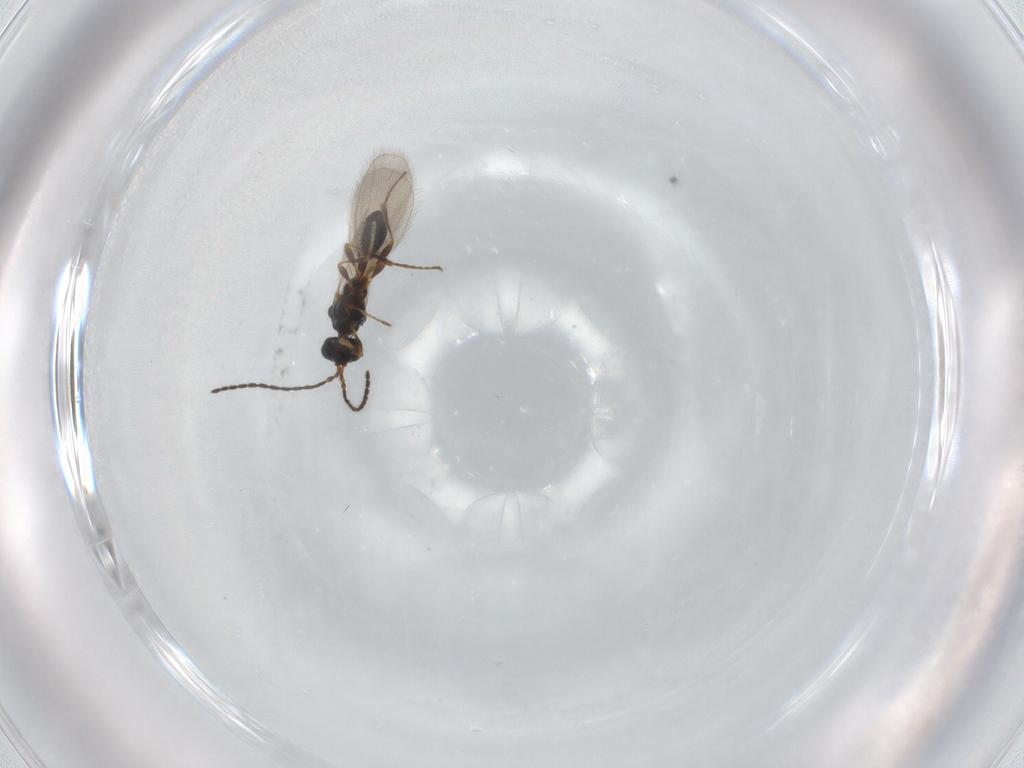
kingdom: Animalia
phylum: Arthropoda
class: Insecta
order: Hymenoptera
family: Diapriidae
